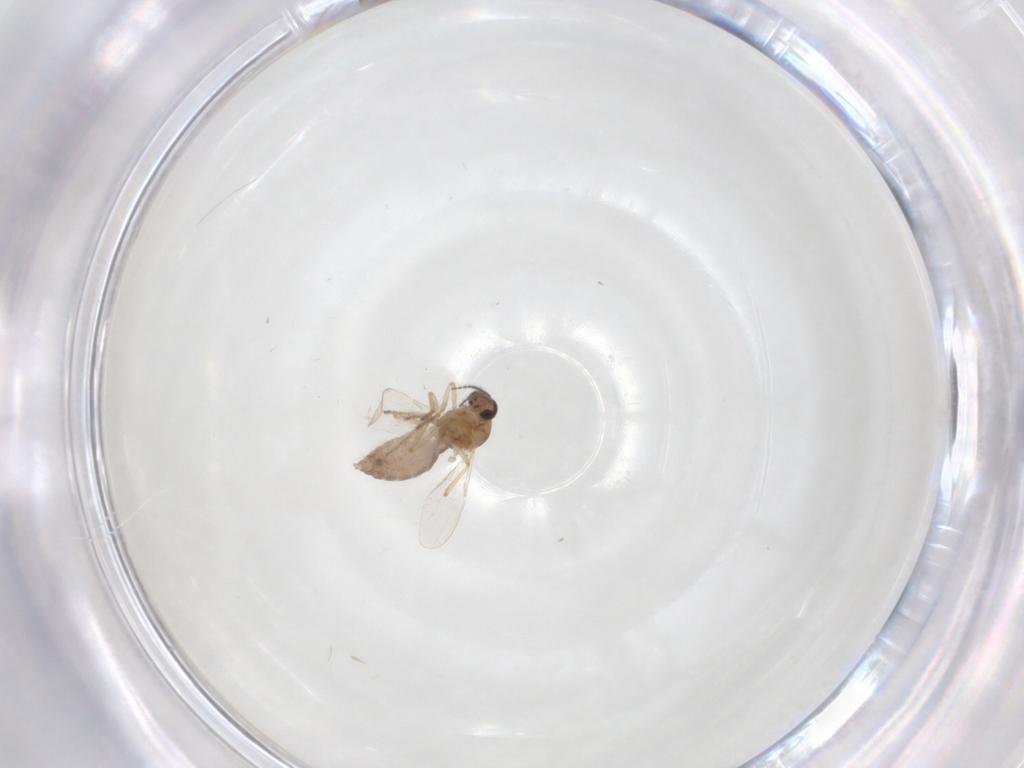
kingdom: Animalia
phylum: Arthropoda
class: Insecta
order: Diptera
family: Ceratopogonidae
